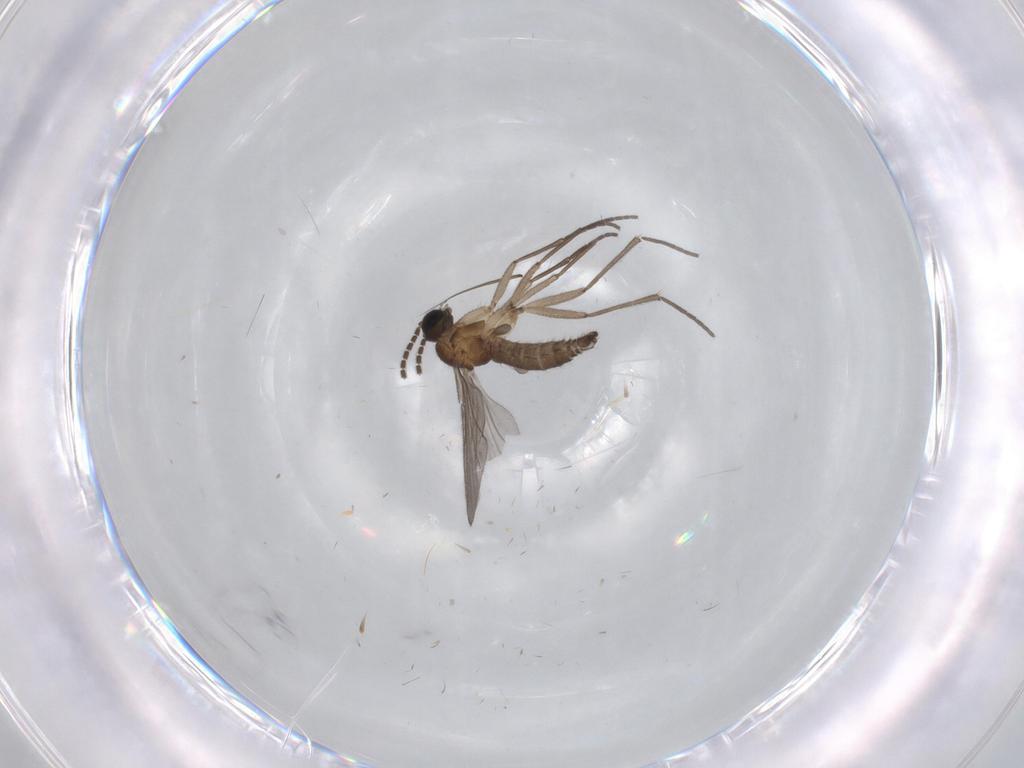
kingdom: Animalia
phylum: Arthropoda
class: Insecta
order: Diptera
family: Sciaridae
